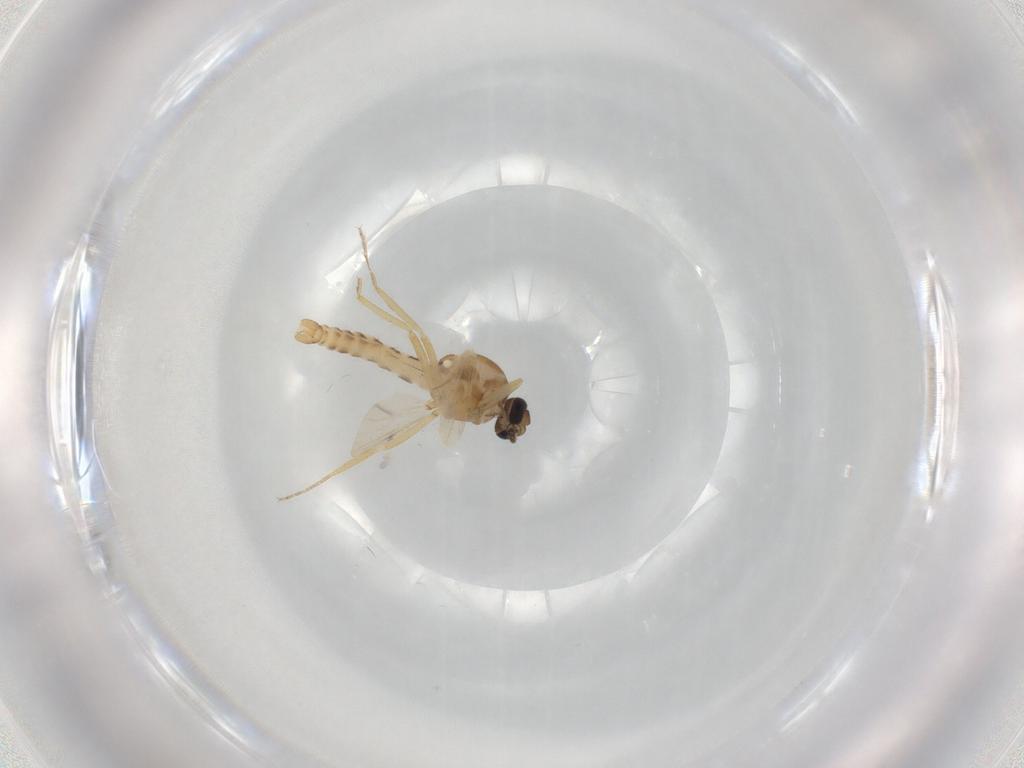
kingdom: Animalia
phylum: Arthropoda
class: Insecta
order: Diptera
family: Ceratopogonidae
